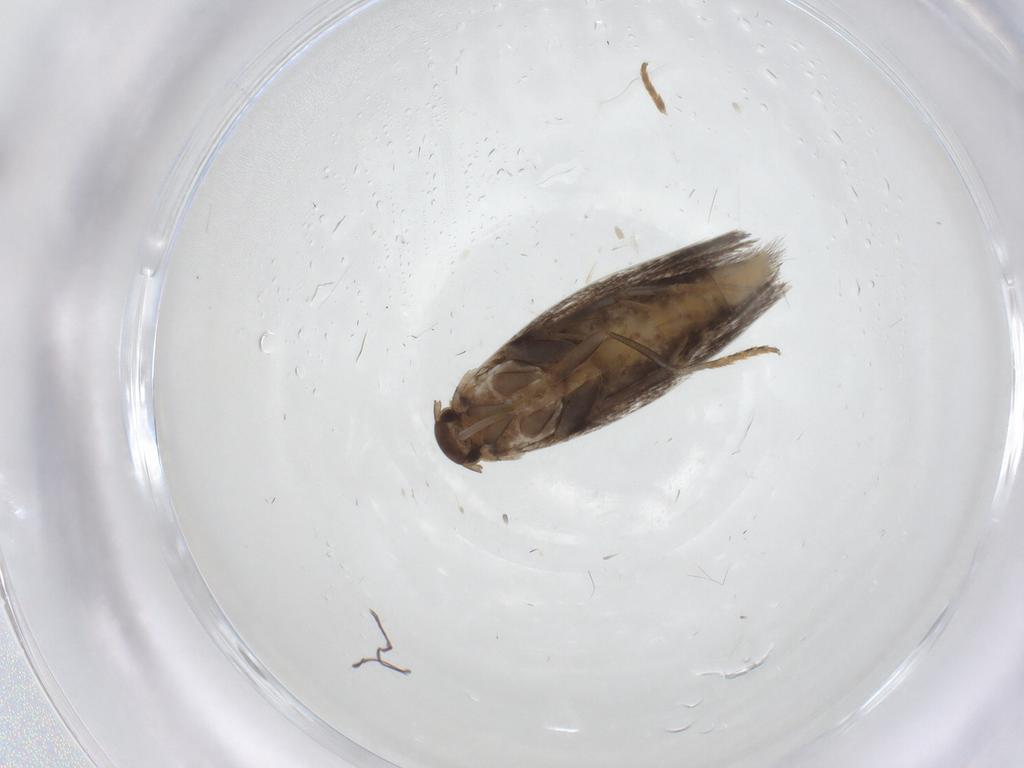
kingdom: Animalia
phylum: Arthropoda
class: Insecta
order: Lepidoptera
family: Elachistidae
